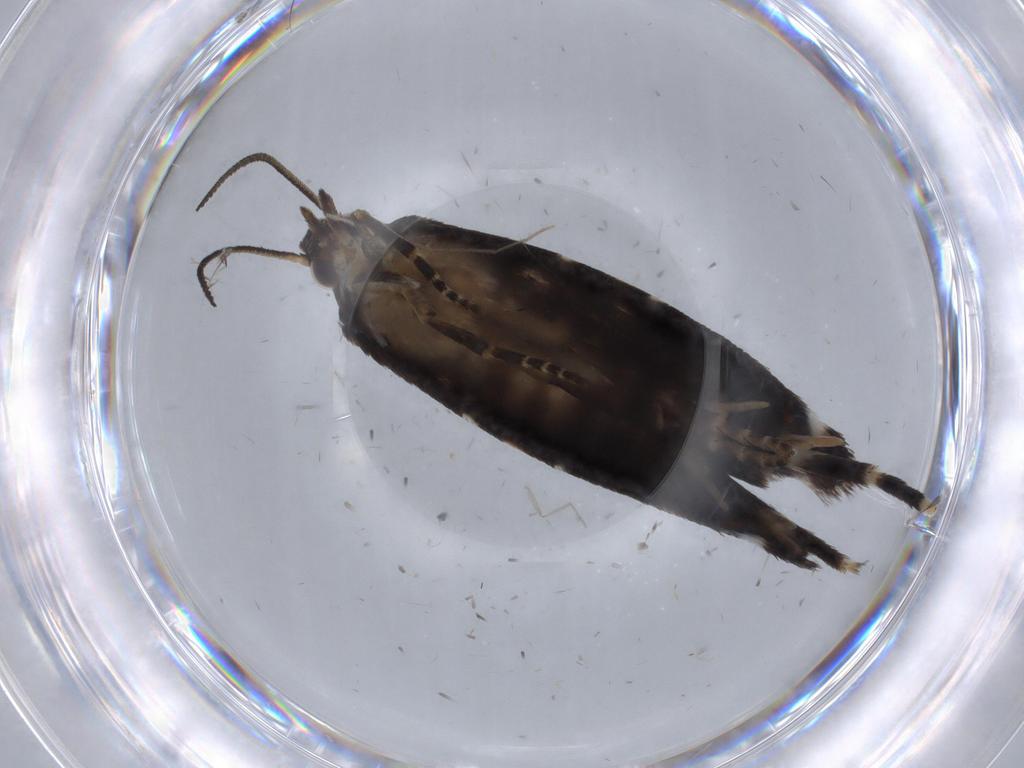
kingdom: Animalia
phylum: Arthropoda
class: Insecta
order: Lepidoptera
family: Glyphipterigidae
